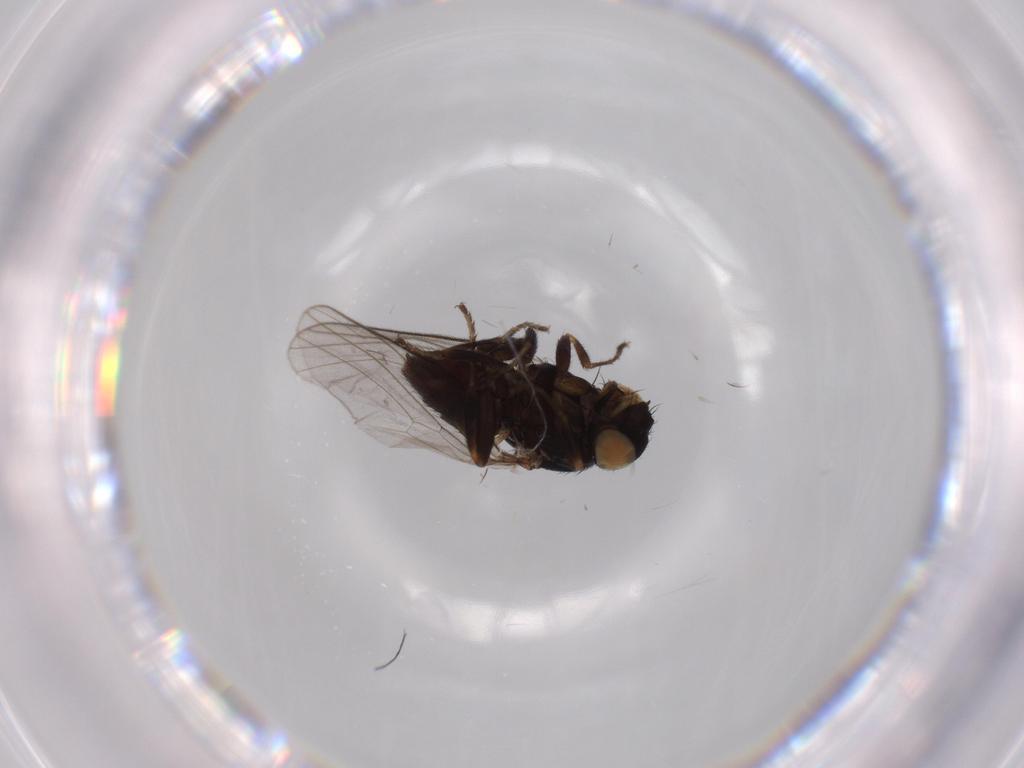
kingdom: Animalia
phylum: Arthropoda
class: Insecta
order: Diptera
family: Milichiidae
